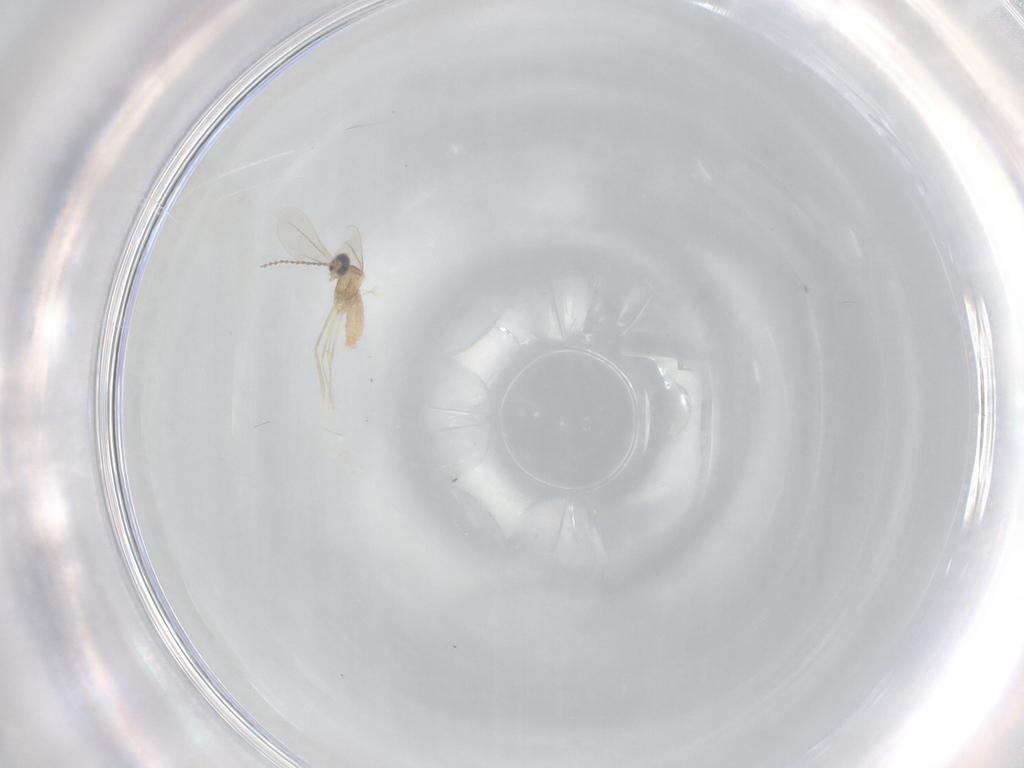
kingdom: Animalia
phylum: Arthropoda
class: Insecta
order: Diptera
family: Cecidomyiidae
